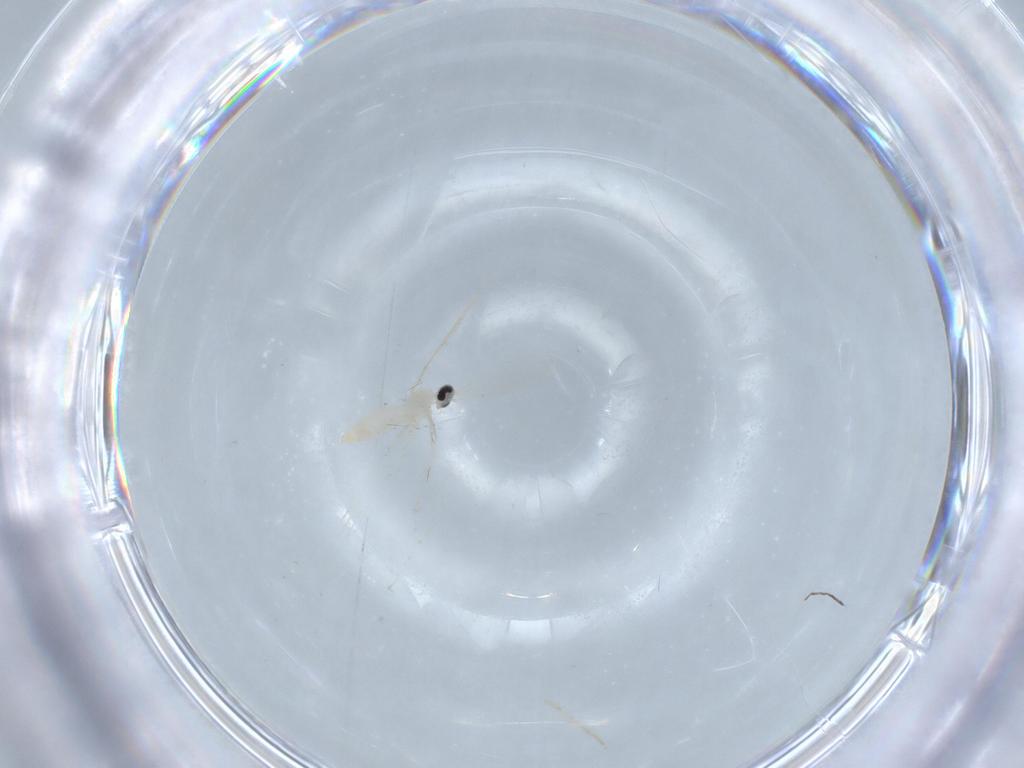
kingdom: Animalia
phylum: Arthropoda
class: Insecta
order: Diptera
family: Cecidomyiidae
